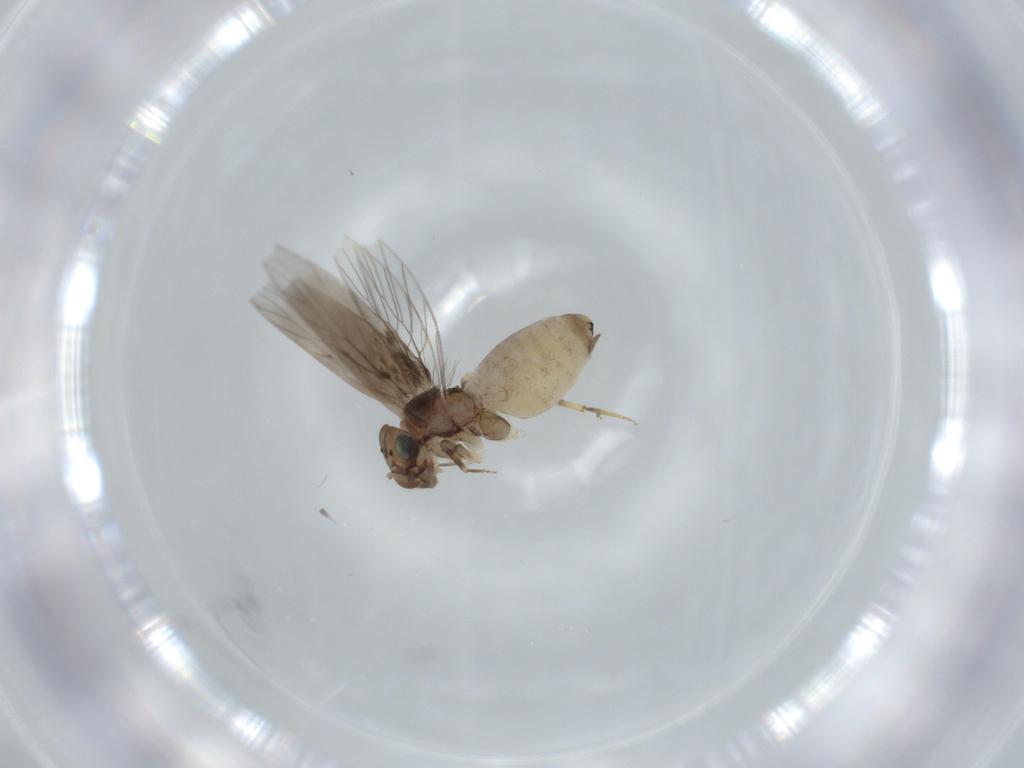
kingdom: Animalia
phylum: Arthropoda
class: Insecta
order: Psocodea
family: Lepidopsocidae
